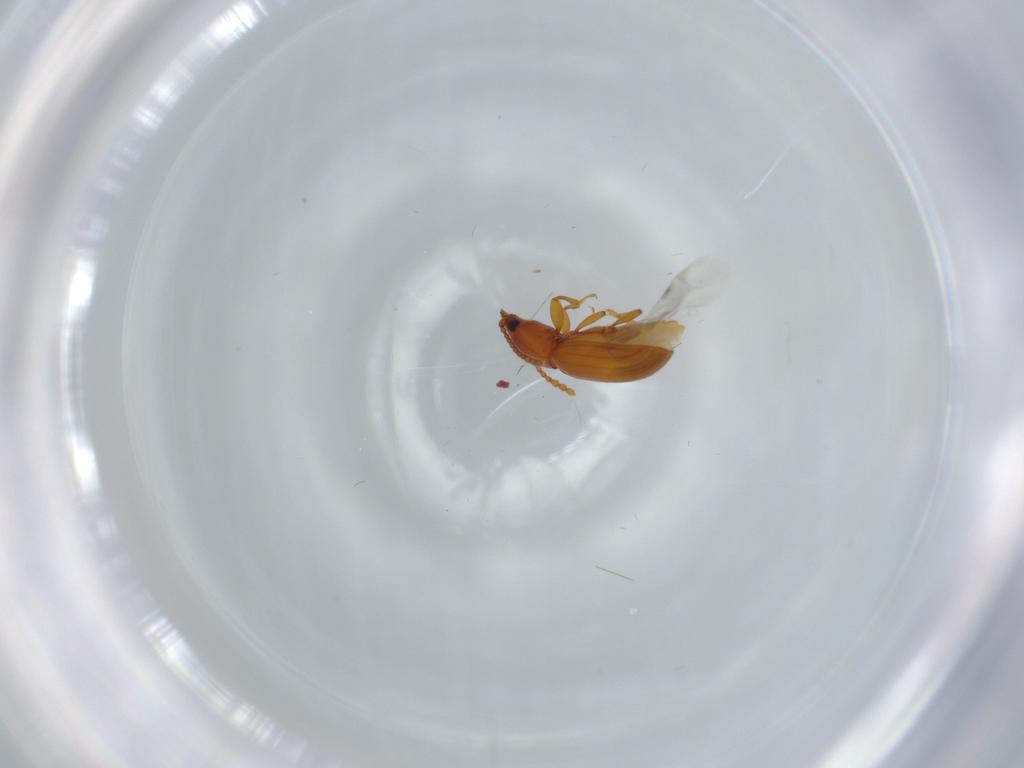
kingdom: Animalia
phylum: Arthropoda
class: Insecta
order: Coleoptera
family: Laemophloeidae
